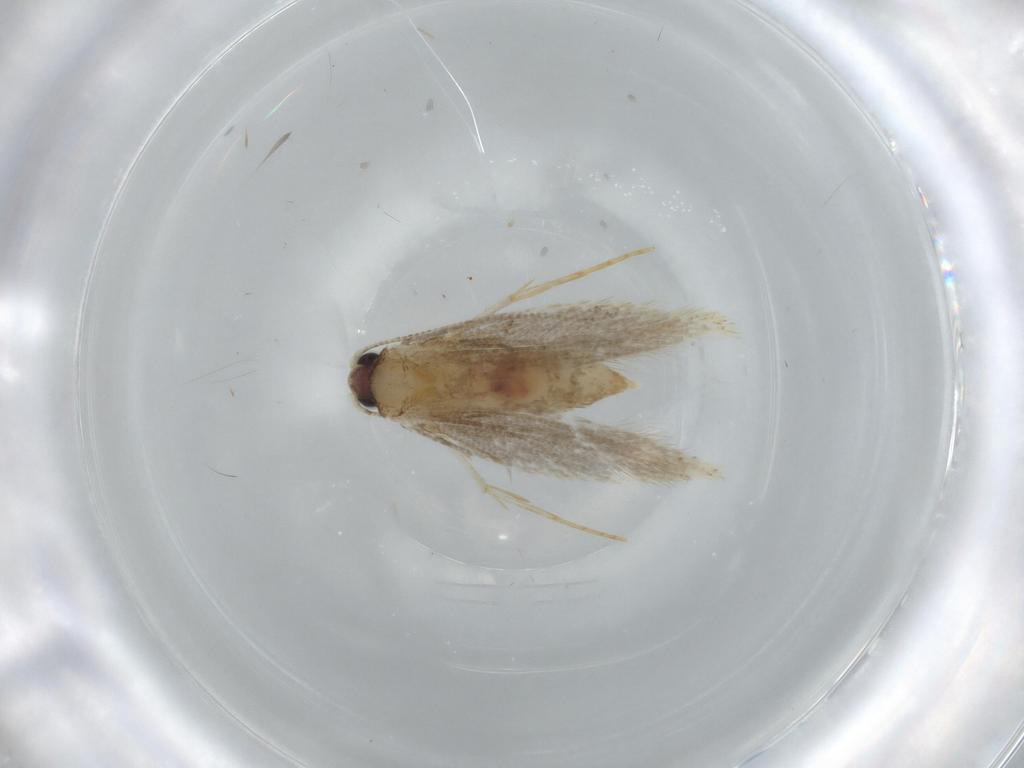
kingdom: Animalia
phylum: Arthropoda
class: Insecta
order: Lepidoptera
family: Tineidae
